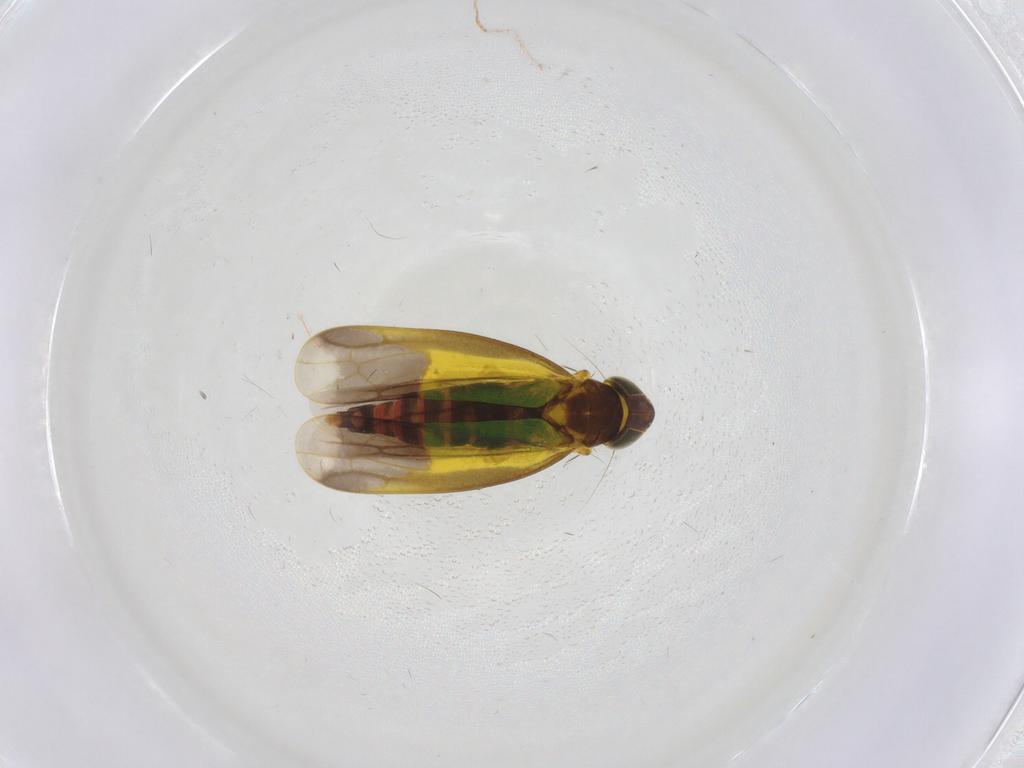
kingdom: Animalia
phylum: Arthropoda
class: Insecta
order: Hemiptera
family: Cicadellidae
